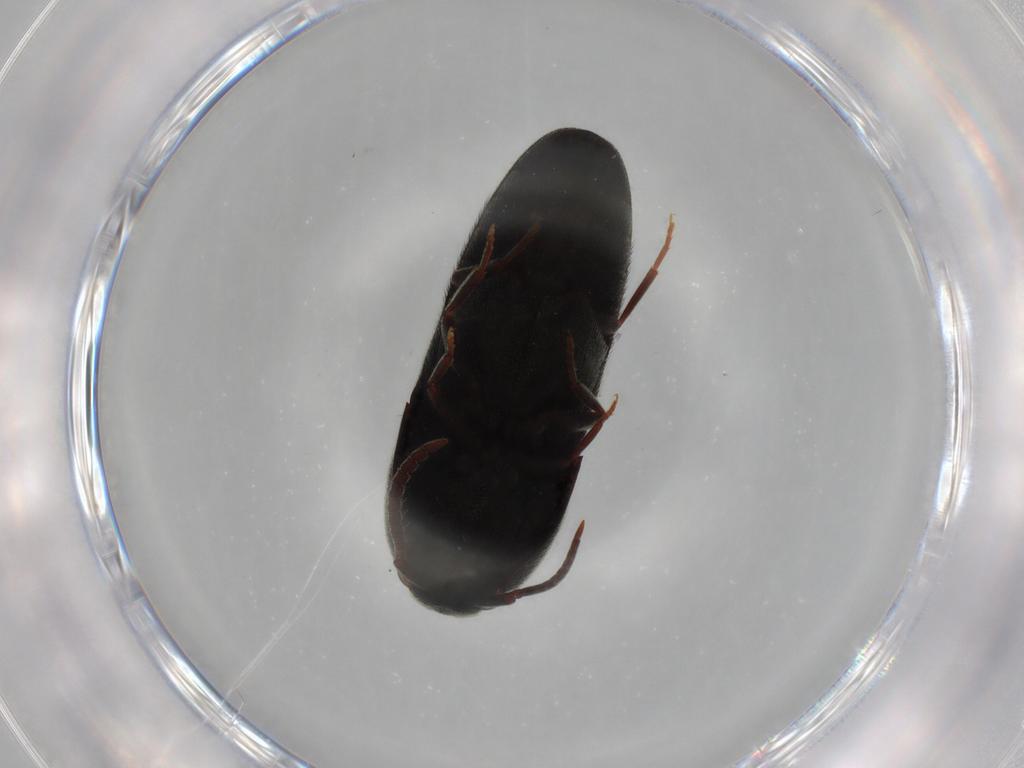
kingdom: Animalia
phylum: Arthropoda
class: Insecta
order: Coleoptera
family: Eucnemidae
